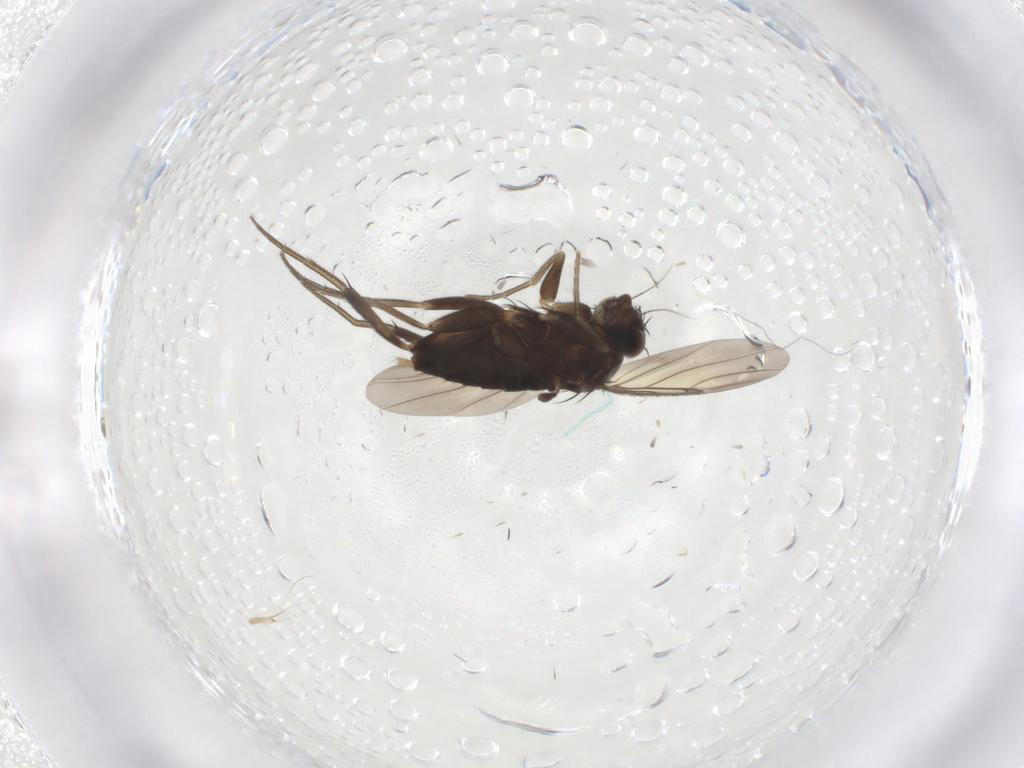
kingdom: Animalia
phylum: Arthropoda
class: Insecta
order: Diptera
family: Phoridae
